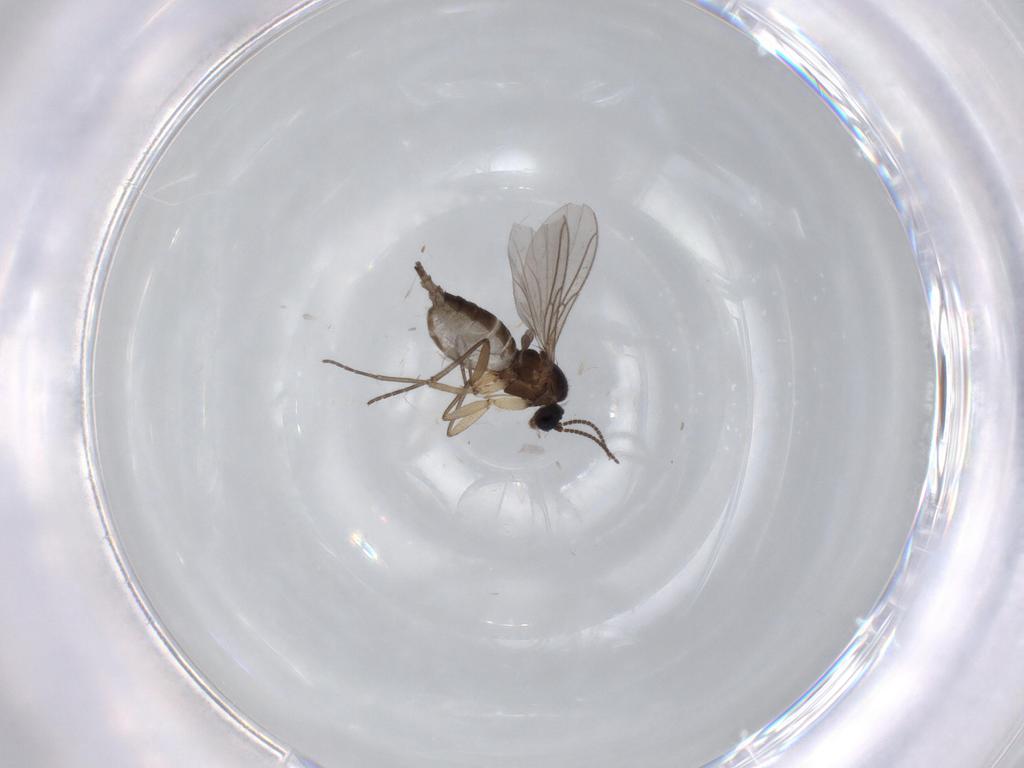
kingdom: Animalia
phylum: Arthropoda
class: Insecta
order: Diptera
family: Sciaridae
